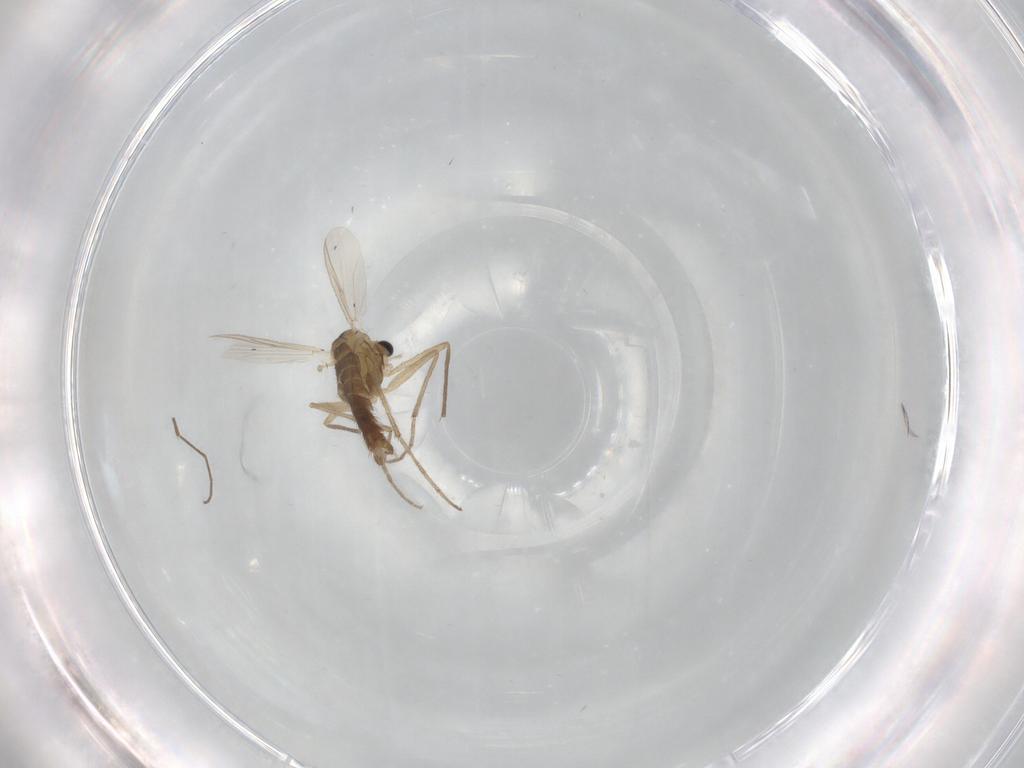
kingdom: Animalia
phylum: Arthropoda
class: Insecta
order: Diptera
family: Chironomidae
